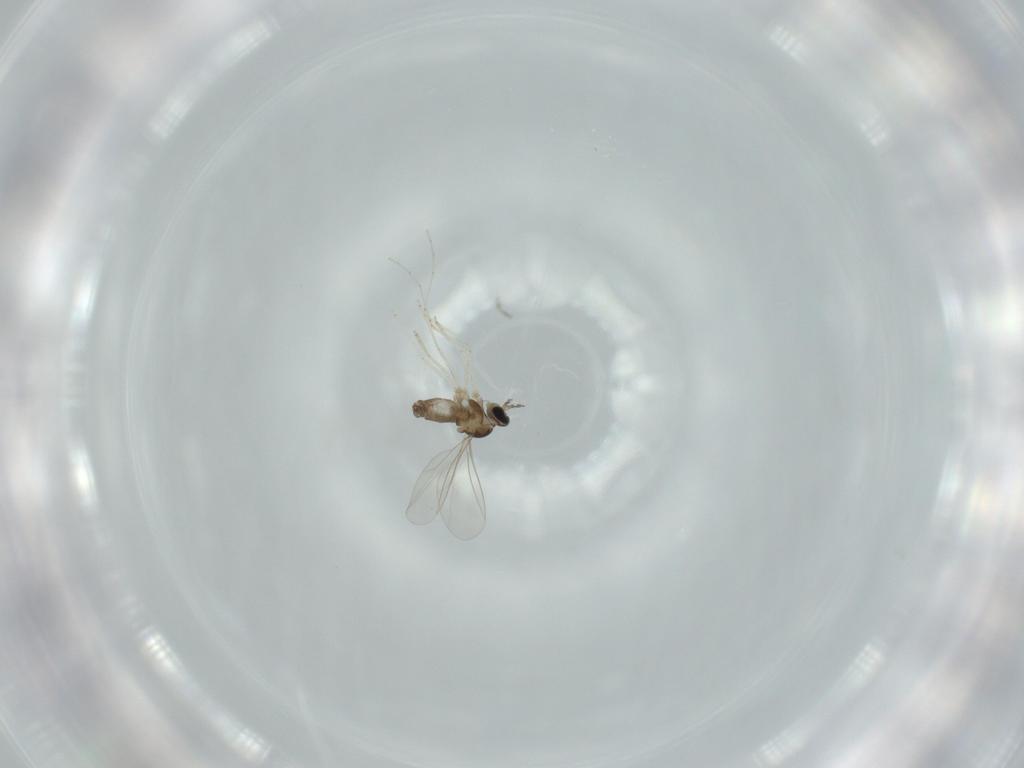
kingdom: Animalia
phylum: Arthropoda
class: Insecta
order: Diptera
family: Cecidomyiidae
